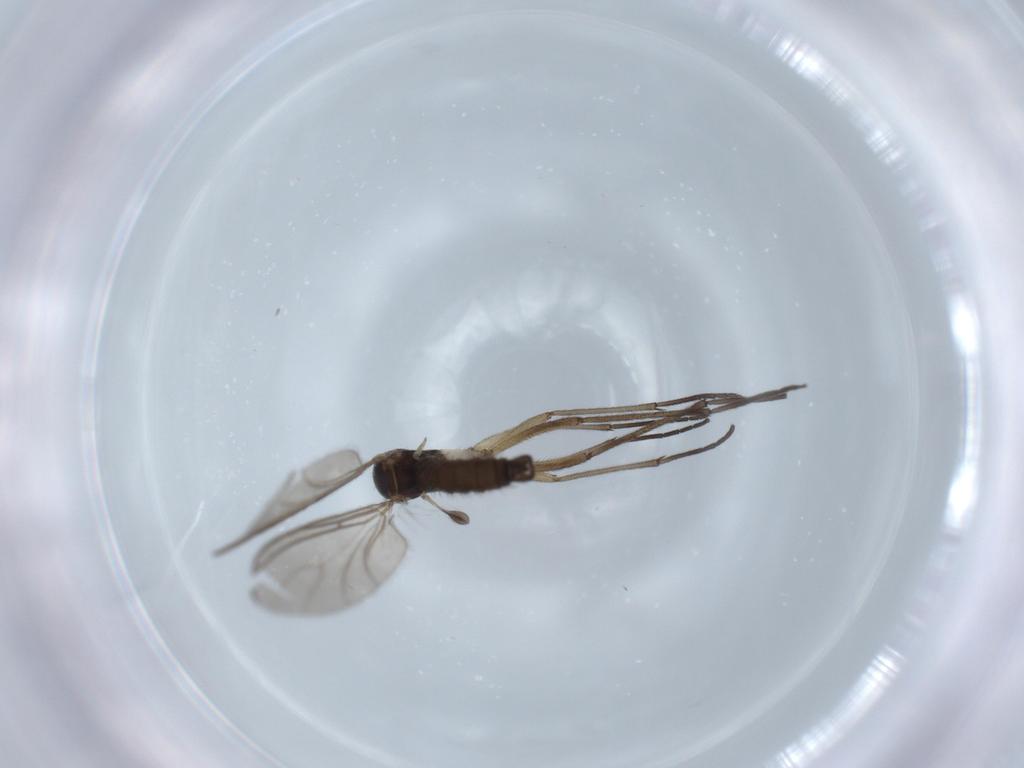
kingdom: Animalia
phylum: Arthropoda
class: Insecta
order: Diptera
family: Sciaridae
